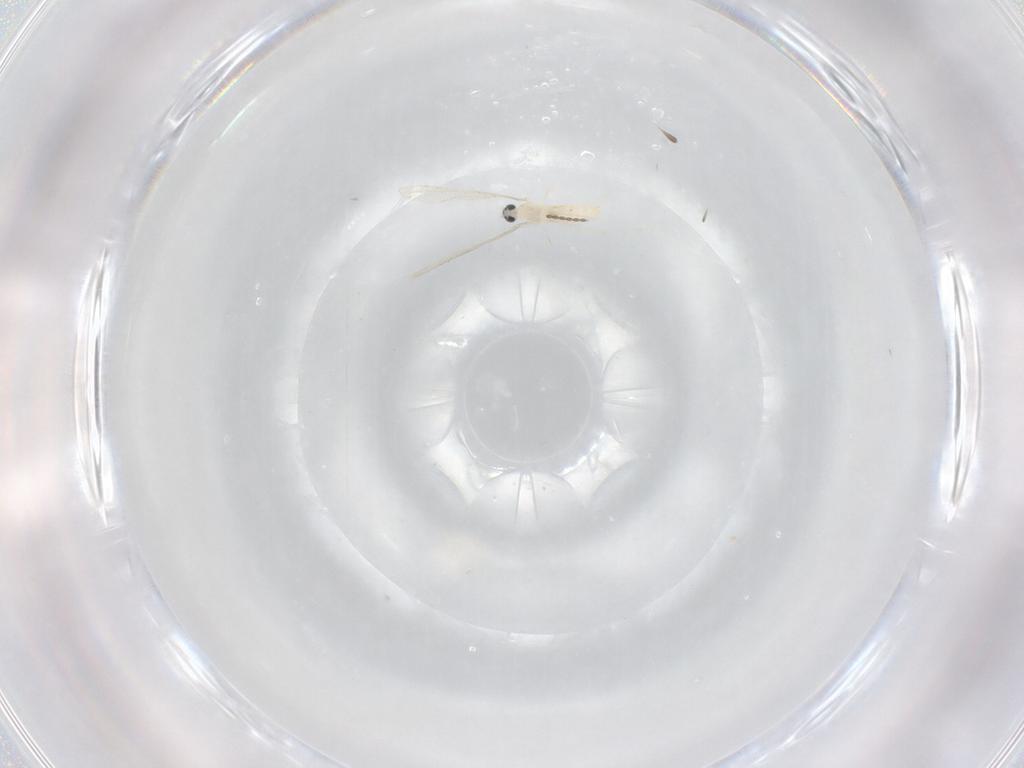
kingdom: Animalia
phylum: Arthropoda
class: Insecta
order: Diptera
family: Cecidomyiidae
